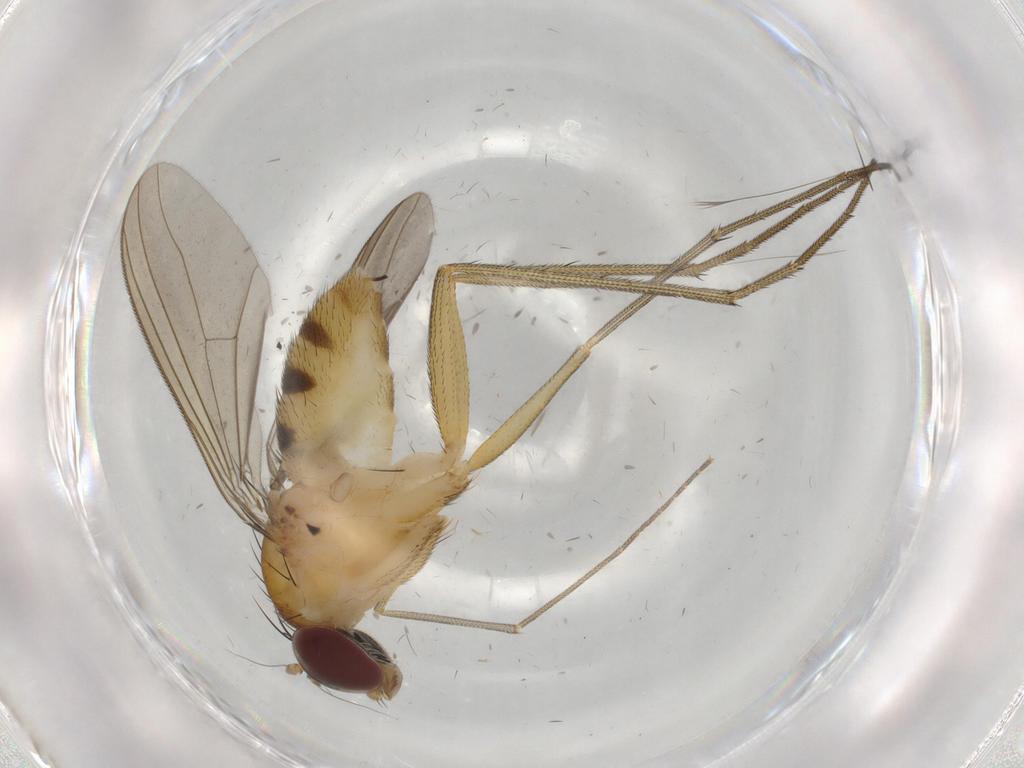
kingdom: Animalia
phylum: Arthropoda
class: Insecta
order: Diptera
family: Dolichopodidae
